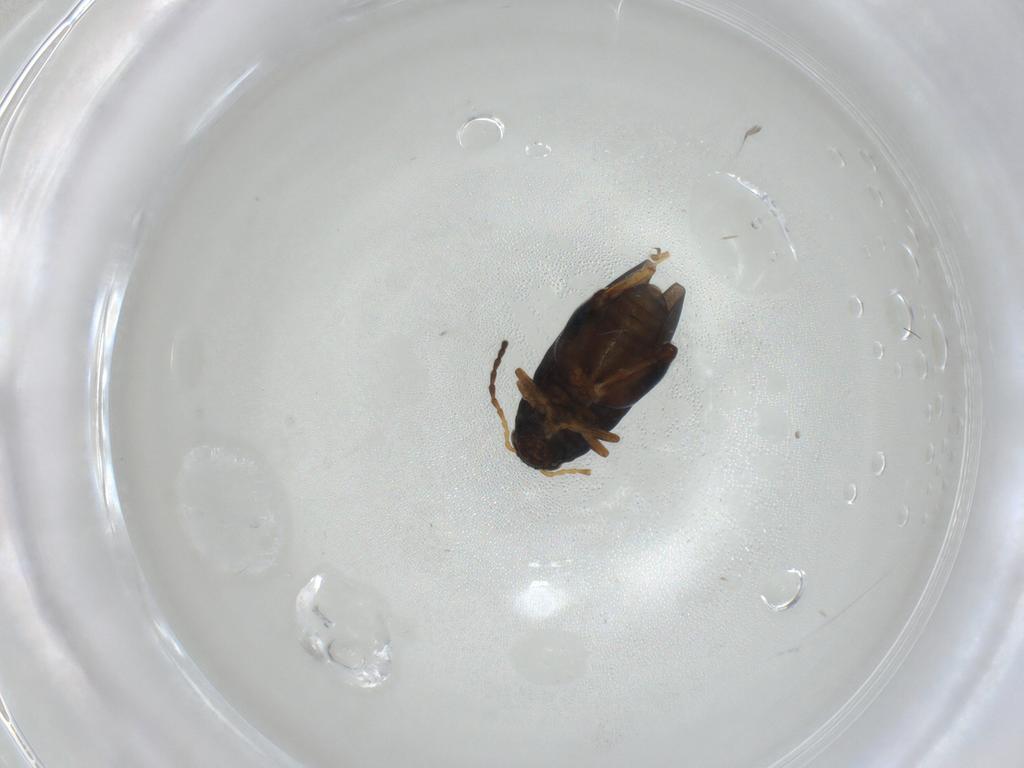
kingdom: Animalia
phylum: Arthropoda
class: Insecta
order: Coleoptera
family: Chrysomelidae
